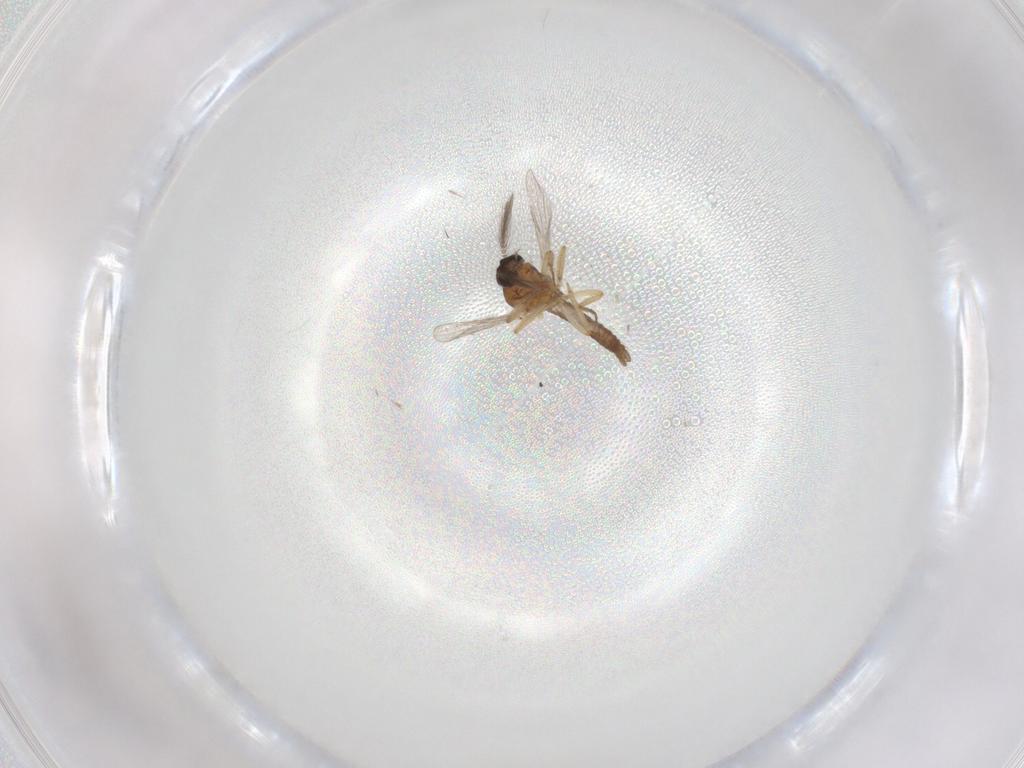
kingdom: Animalia
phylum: Arthropoda
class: Insecta
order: Diptera
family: Ceratopogonidae
